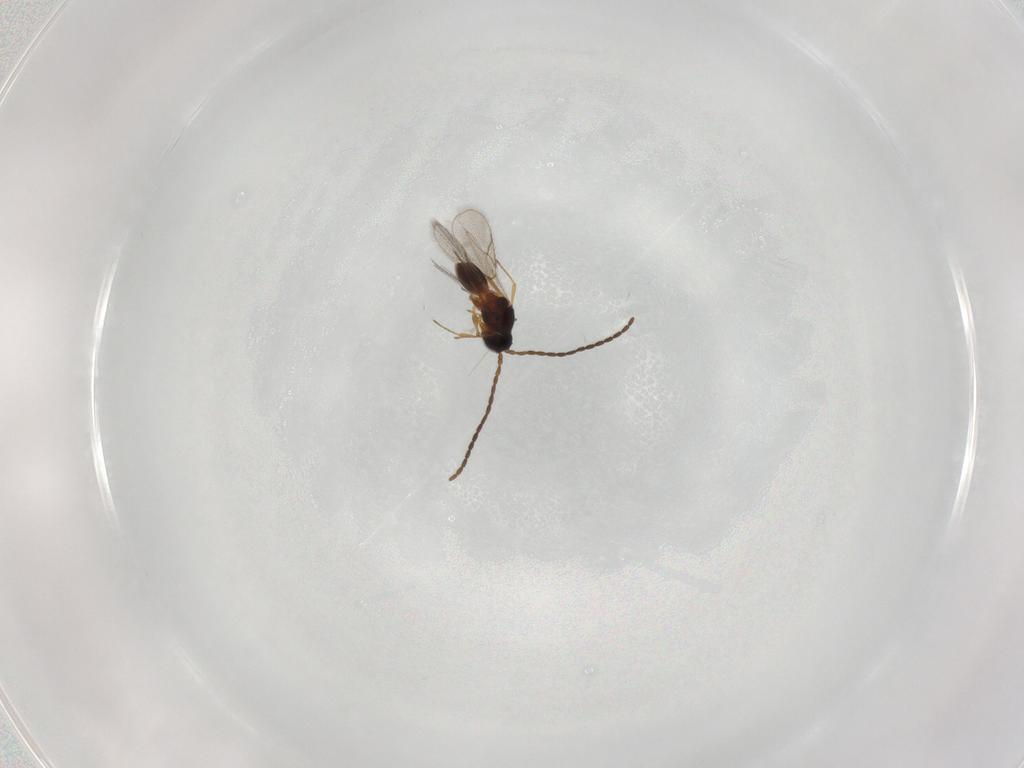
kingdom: Animalia
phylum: Arthropoda
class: Insecta
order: Hymenoptera
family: Figitidae
